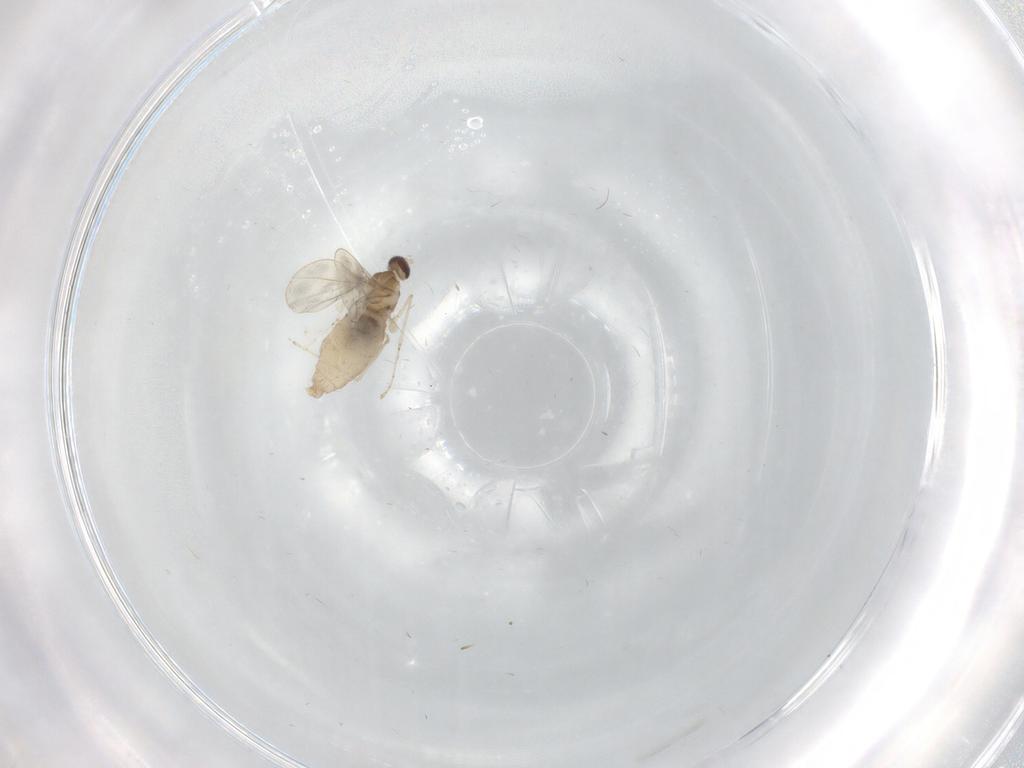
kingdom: Animalia
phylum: Arthropoda
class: Insecta
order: Diptera
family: Cecidomyiidae
